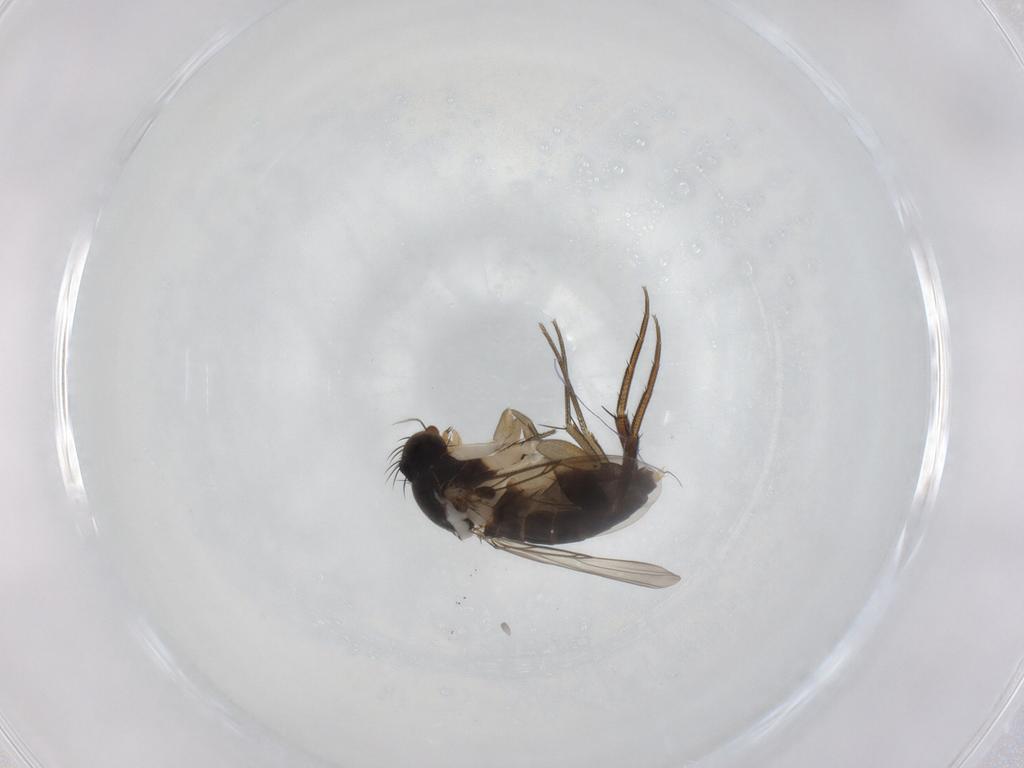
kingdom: Animalia
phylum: Arthropoda
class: Insecta
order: Diptera
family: Phoridae
